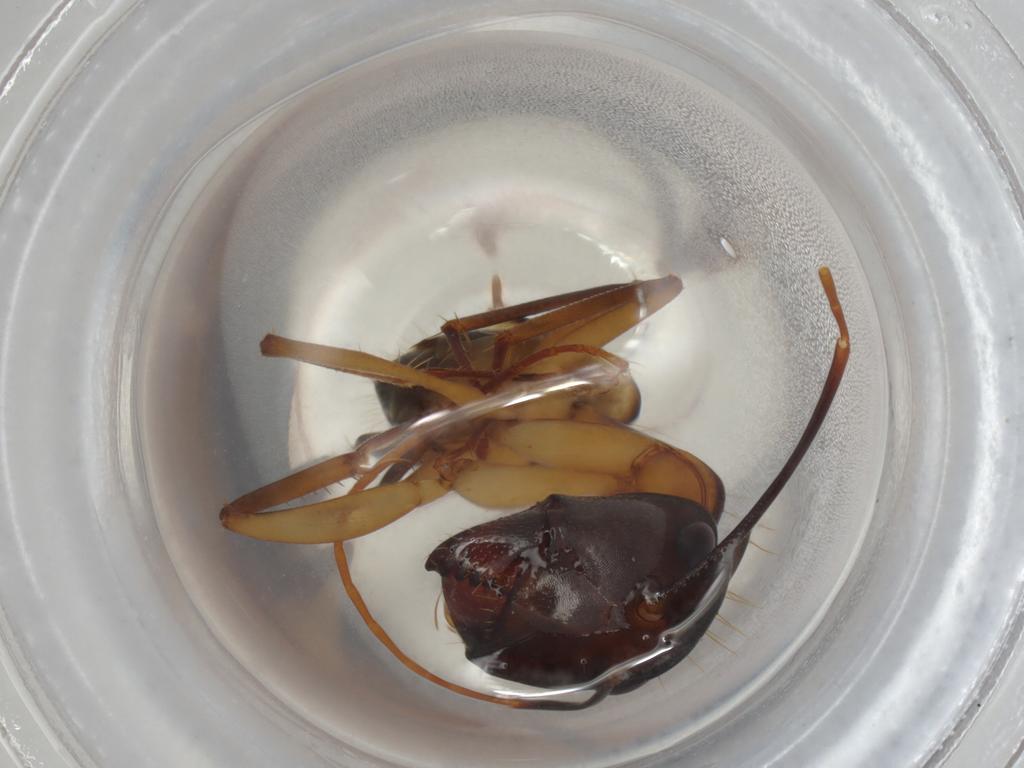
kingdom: Animalia
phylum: Arthropoda
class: Insecta
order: Hymenoptera
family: Formicidae
